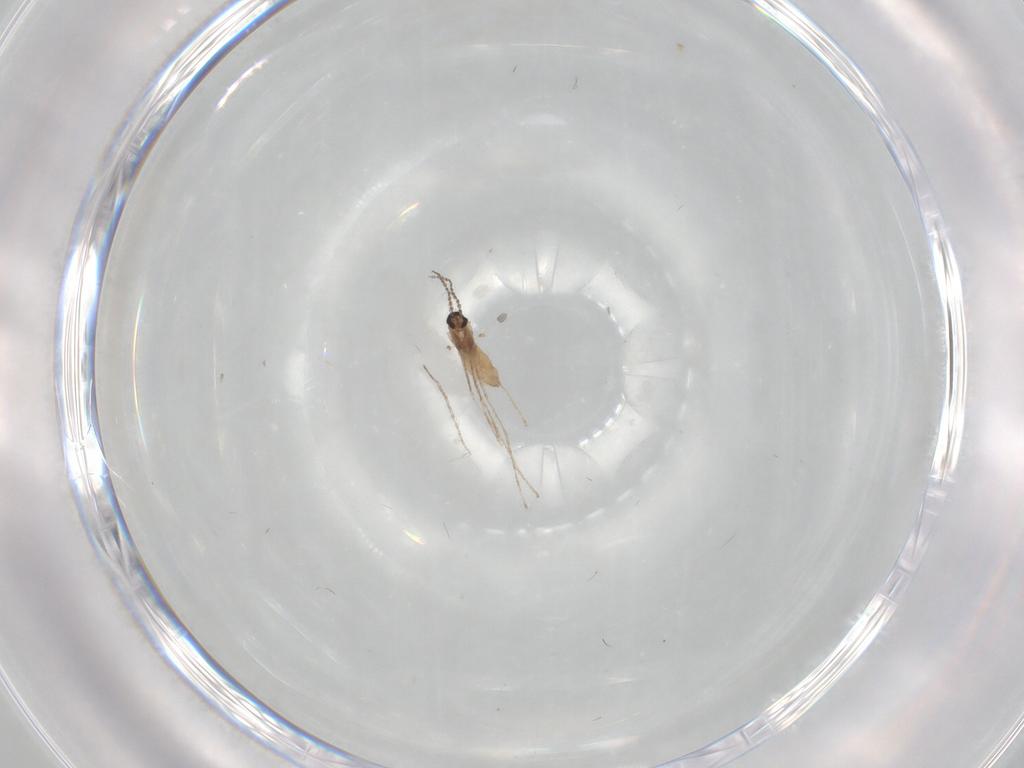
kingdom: Animalia
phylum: Arthropoda
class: Insecta
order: Diptera
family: Cecidomyiidae
